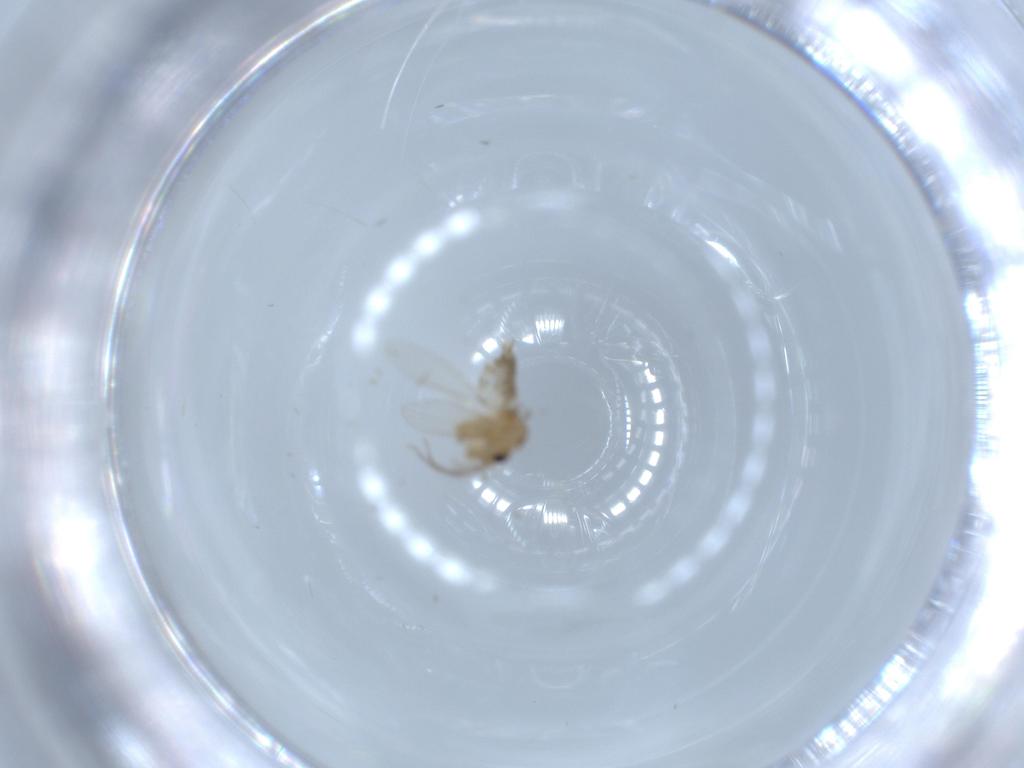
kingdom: Animalia
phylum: Arthropoda
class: Insecta
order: Diptera
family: Psychodidae
